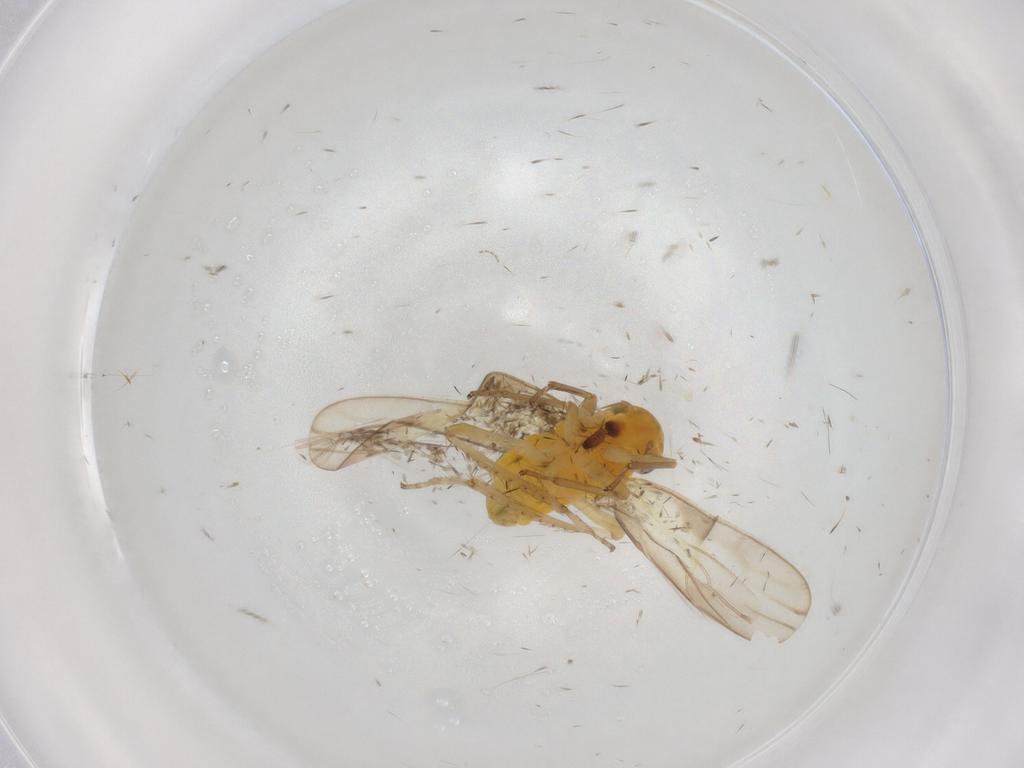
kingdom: Animalia
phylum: Arthropoda
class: Insecta
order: Hemiptera
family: Cicadellidae
